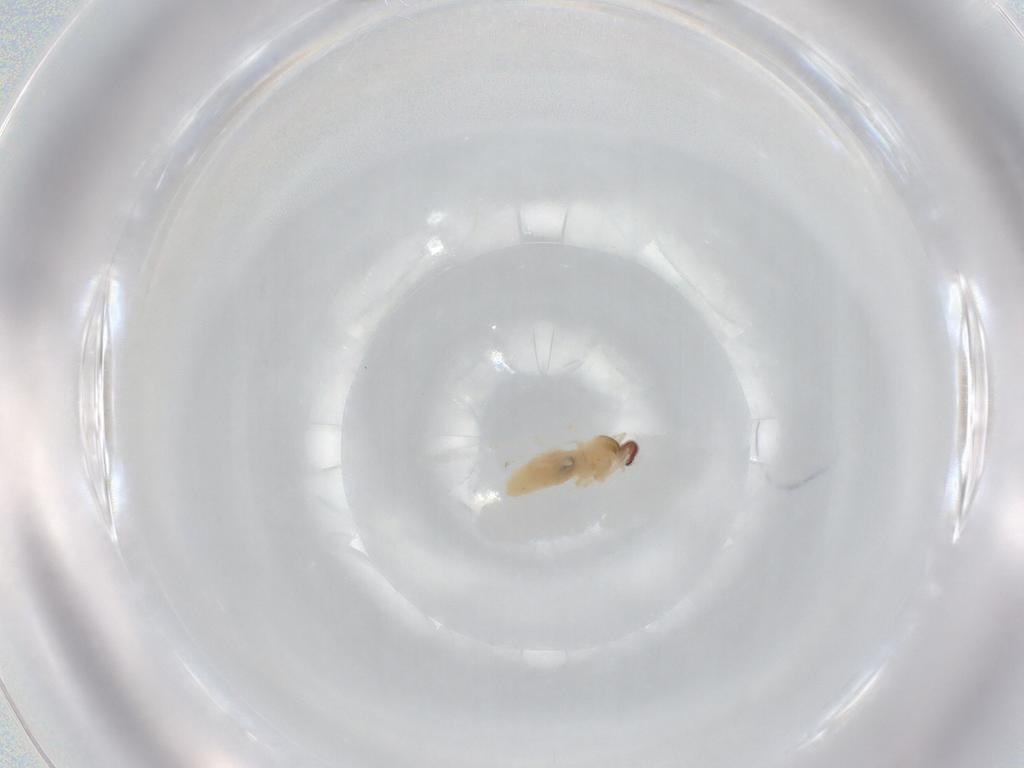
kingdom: Animalia
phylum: Arthropoda
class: Insecta
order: Diptera
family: Cecidomyiidae
